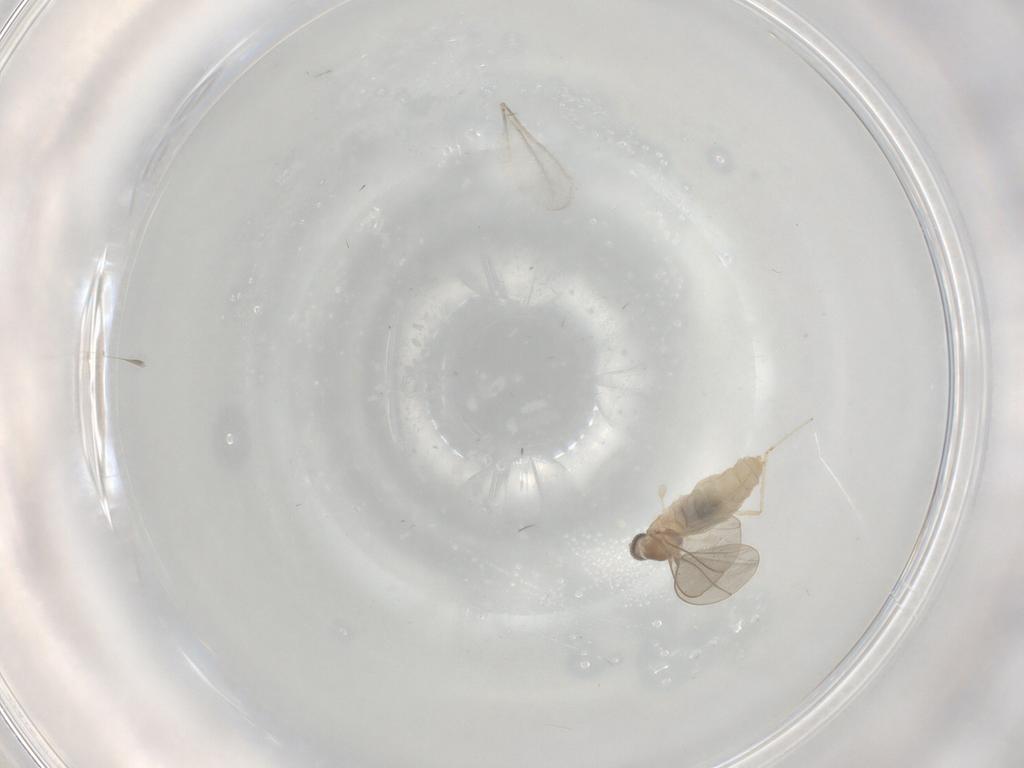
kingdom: Animalia
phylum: Arthropoda
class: Insecta
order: Diptera
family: Cecidomyiidae
